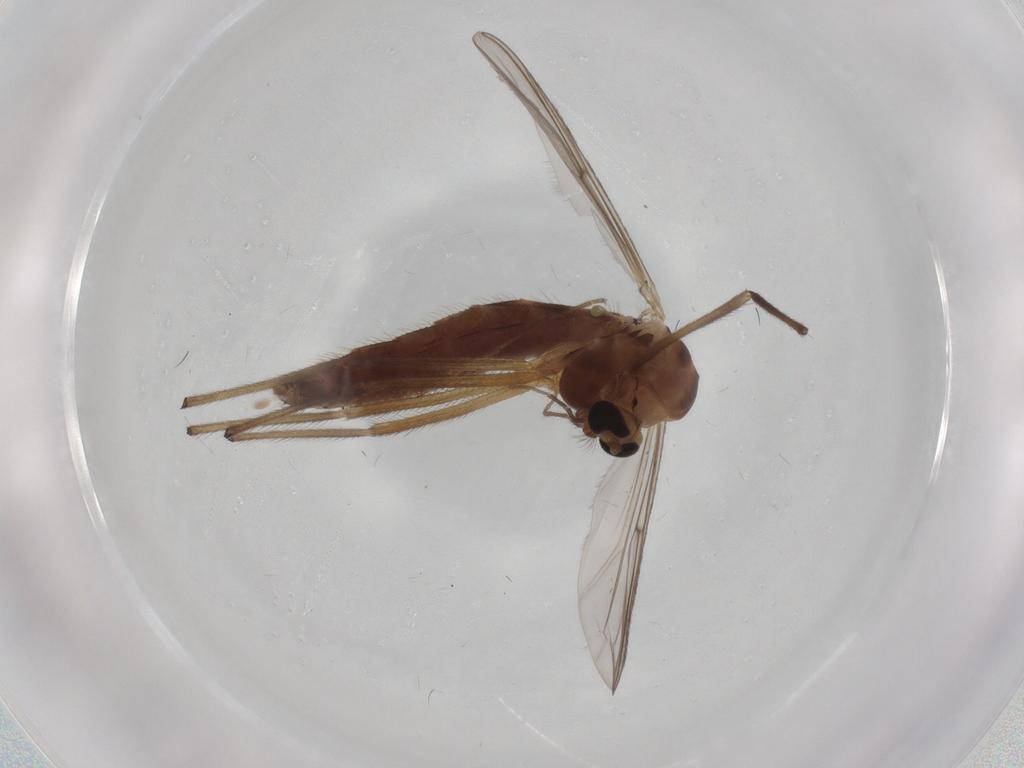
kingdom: Animalia
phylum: Arthropoda
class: Insecta
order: Diptera
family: Chironomidae
